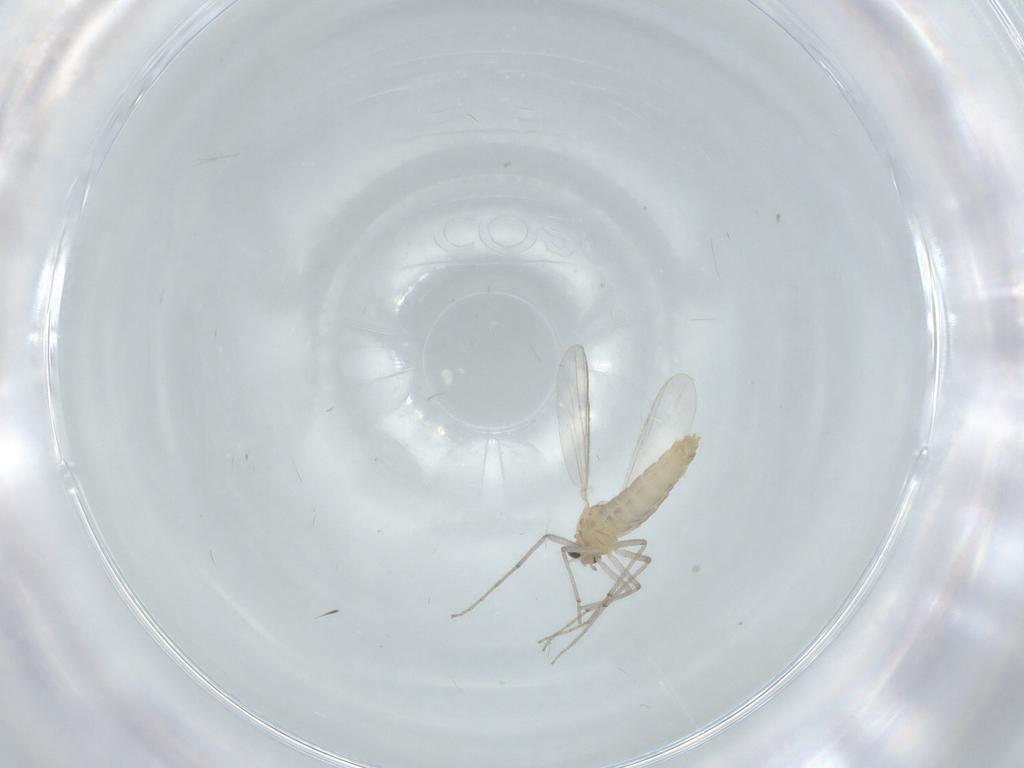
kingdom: Animalia
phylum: Arthropoda
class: Insecta
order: Diptera
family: Chironomidae
